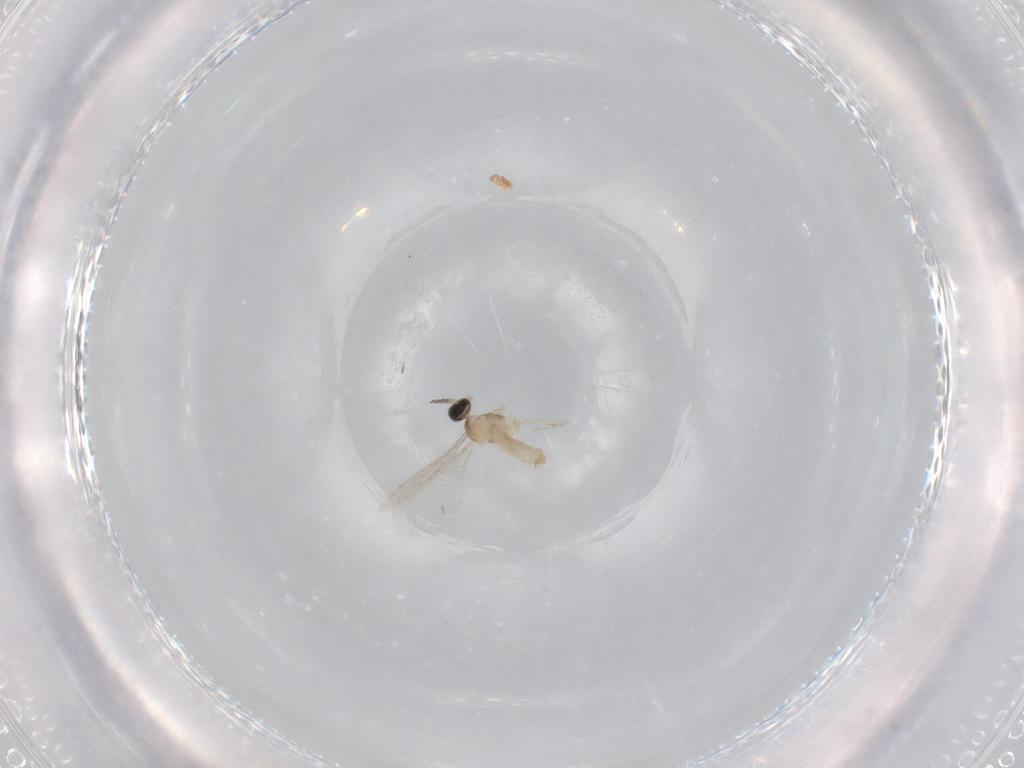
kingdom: Animalia
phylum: Arthropoda
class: Insecta
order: Diptera
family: Cecidomyiidae
